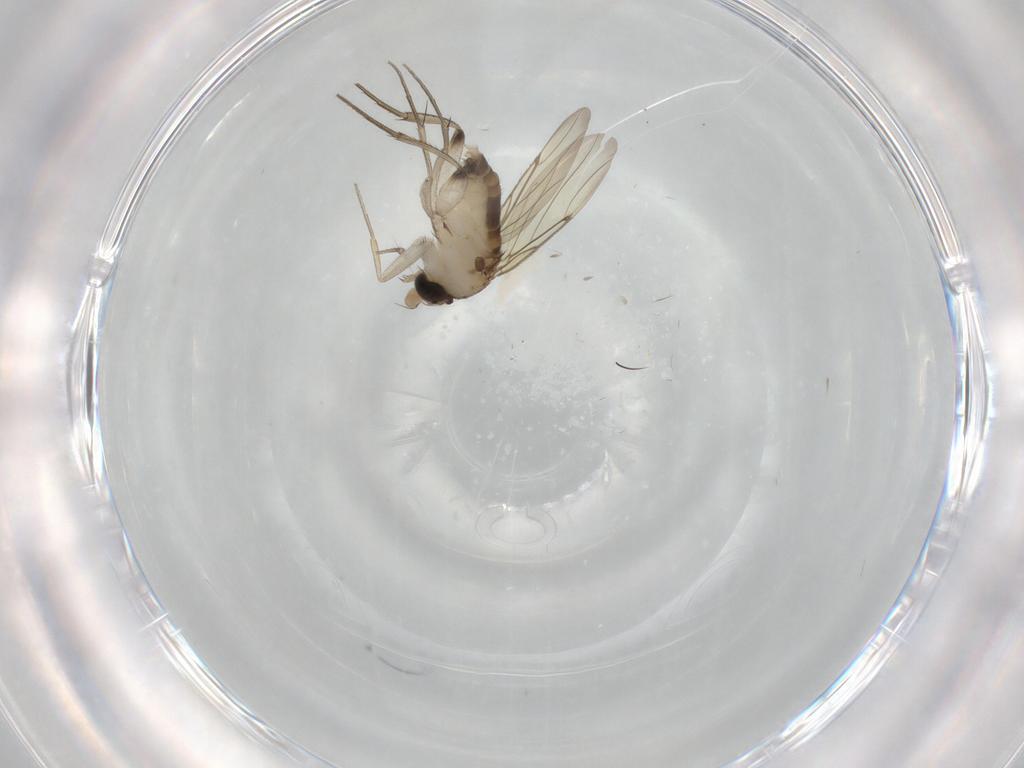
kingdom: Animalia
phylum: Arthropoda
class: Insecta
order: Diptera
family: Chironomidae
